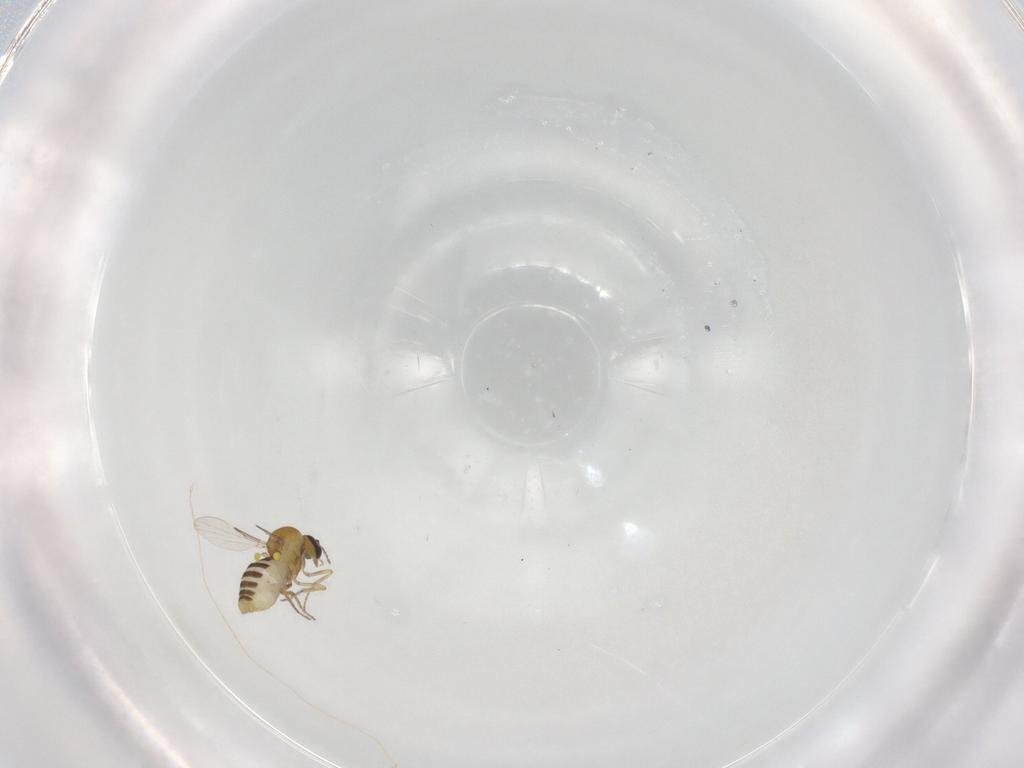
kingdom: Animalia
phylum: Arthropoda
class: Insecta
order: Diptera
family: Ceratopogonidae
